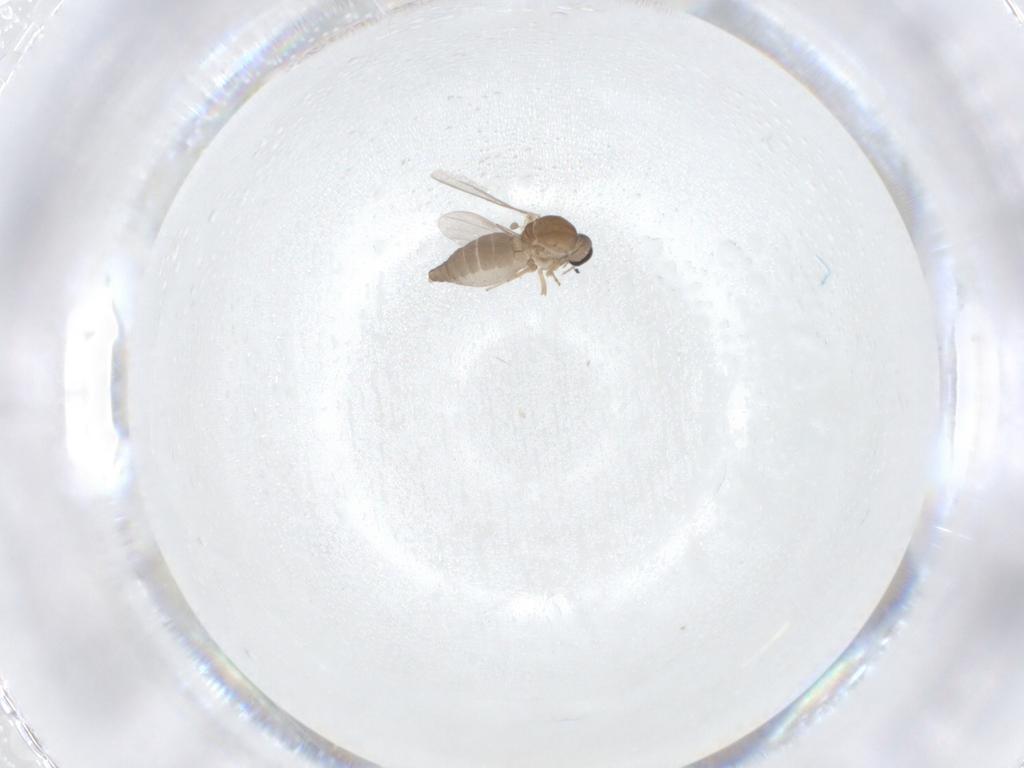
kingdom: Animalia
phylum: Arthropoda
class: Insecta
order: Diptera
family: Ceratopogonidae
